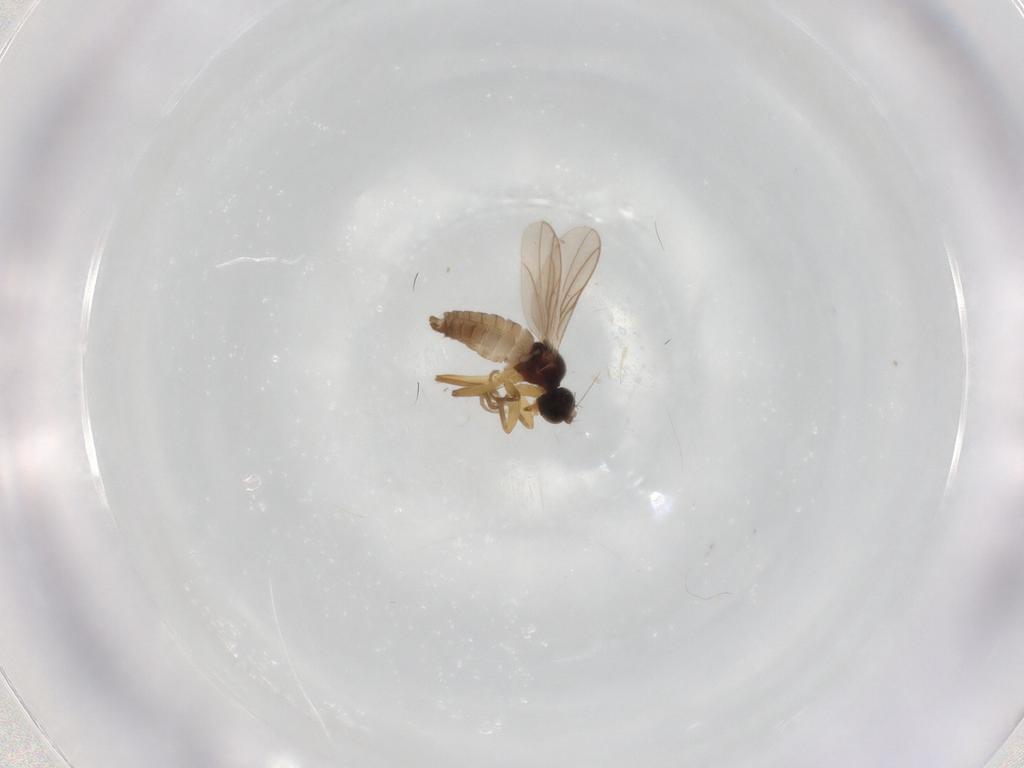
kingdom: Animalia
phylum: Arthropoda
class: Insecta
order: Diptera
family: Hybotidae
